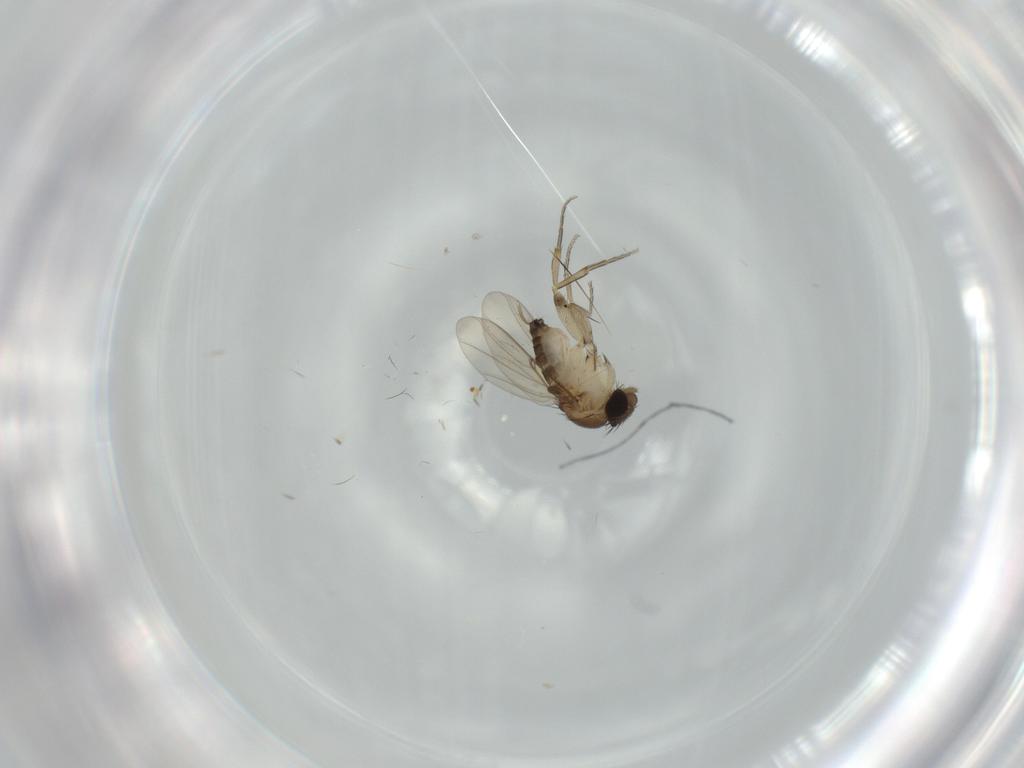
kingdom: Animalia
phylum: Arthropoda
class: Insecta
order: Diptera
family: Phoridae
